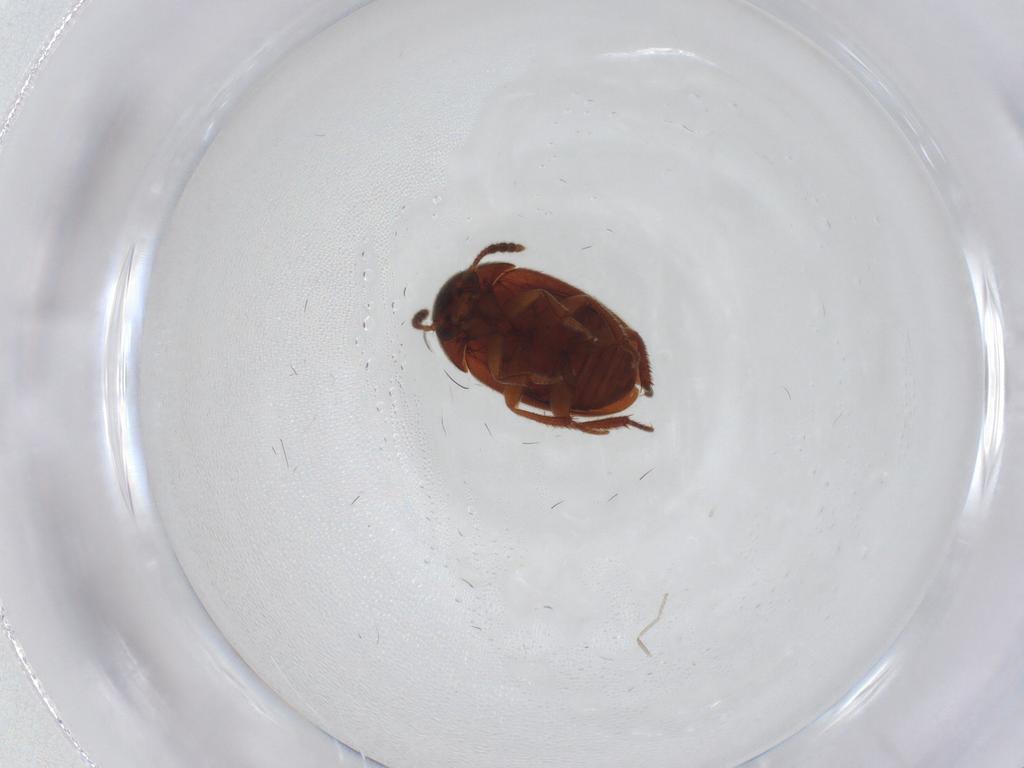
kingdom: Animalia
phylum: Arthropoda
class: Insecta
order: Coleoptera
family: Leiodidae
